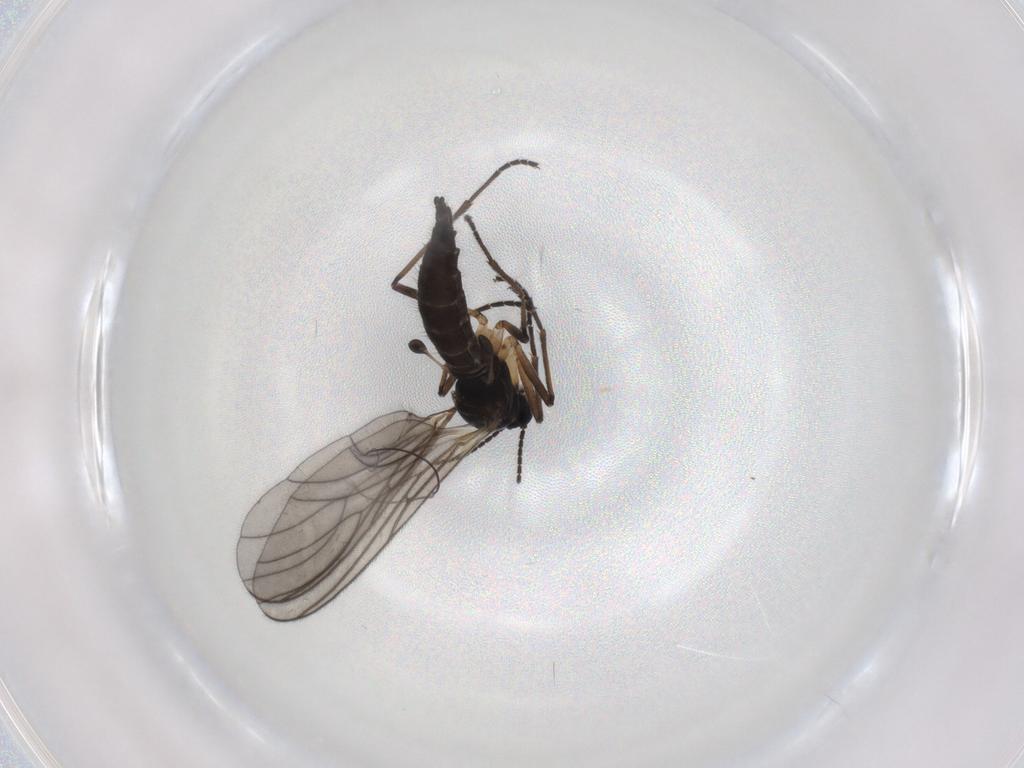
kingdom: Animalia
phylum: Arthropoda
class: Insecta
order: Diptera
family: Sciaridae
